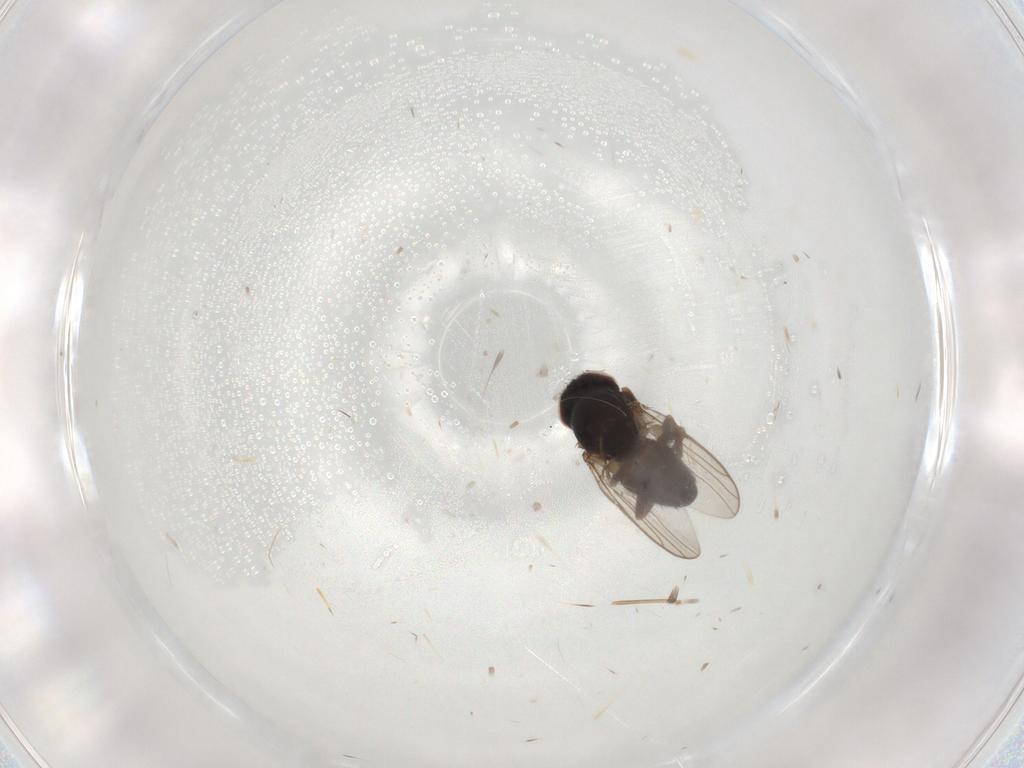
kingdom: Animalia
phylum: Arthropoda
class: Insecta
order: Diptera
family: Chloropidae
